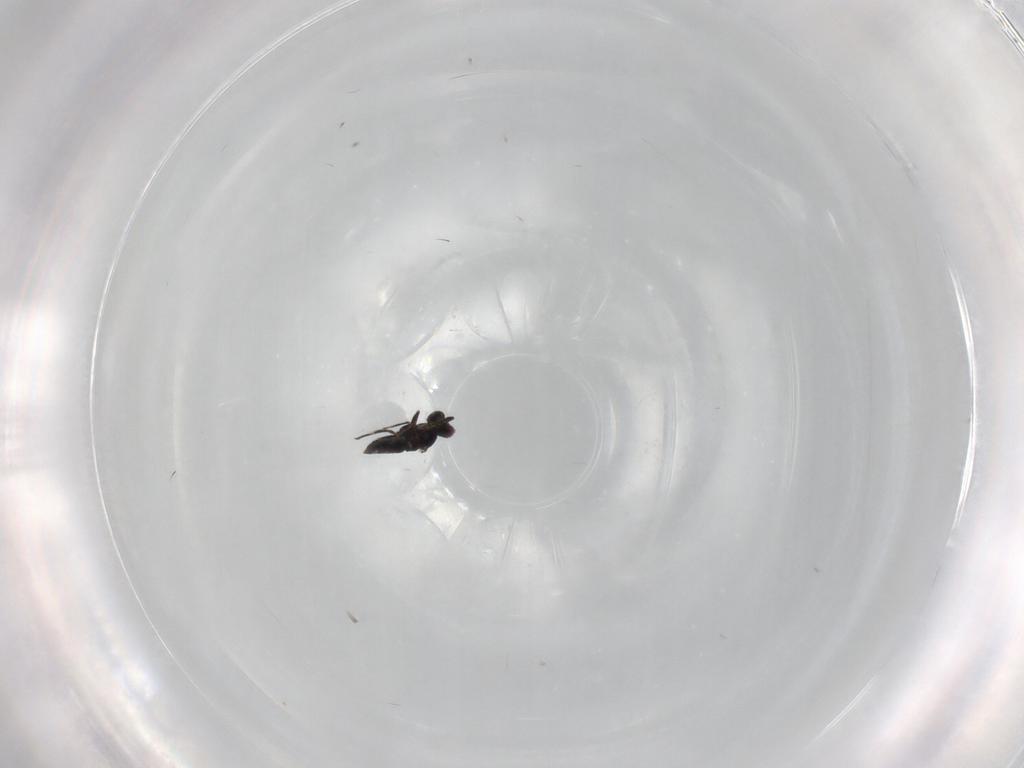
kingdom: Animalia
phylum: Arthropoda
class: Insecta
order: Hymenoptera
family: Encyrtidae
